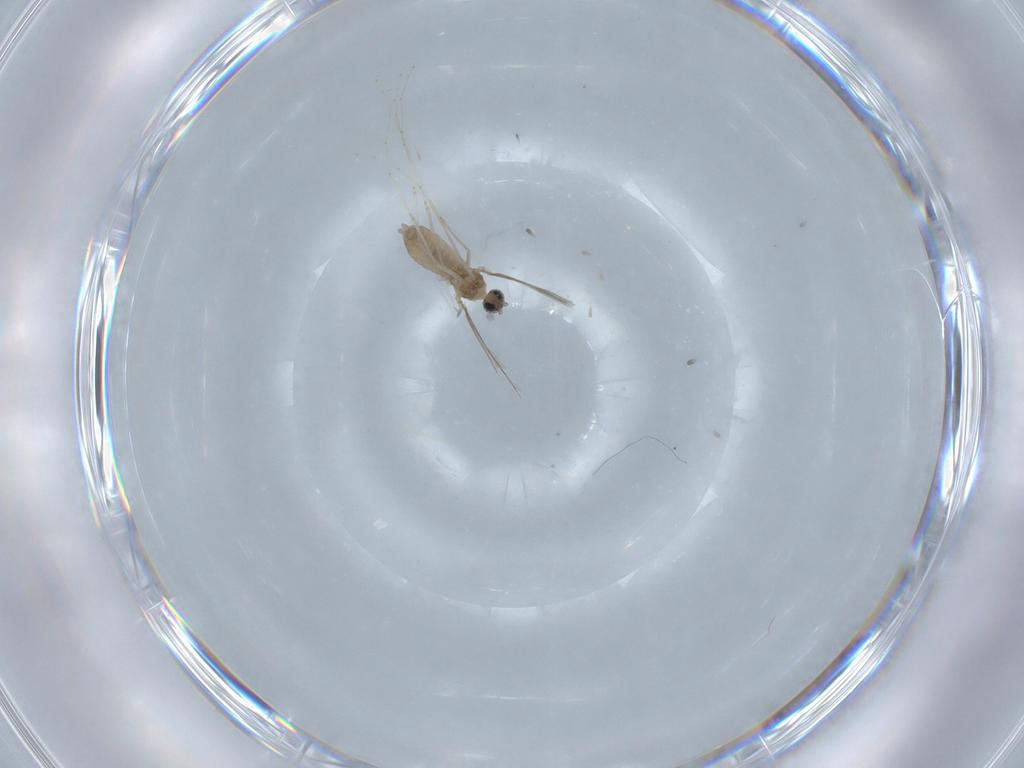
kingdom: Animalia
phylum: Arthropoda
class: Insecta
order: Diptera
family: Cecidomyiidae
